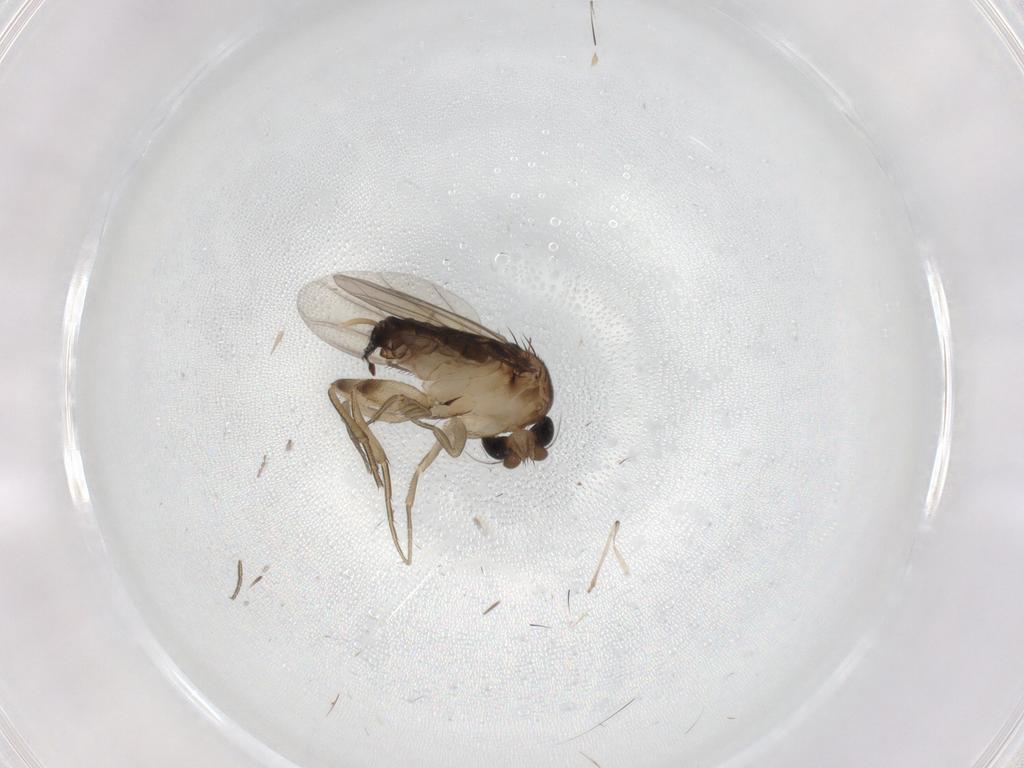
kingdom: Animalia
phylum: Arthropoda
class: Insecta
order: Diptera
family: Phoridae
